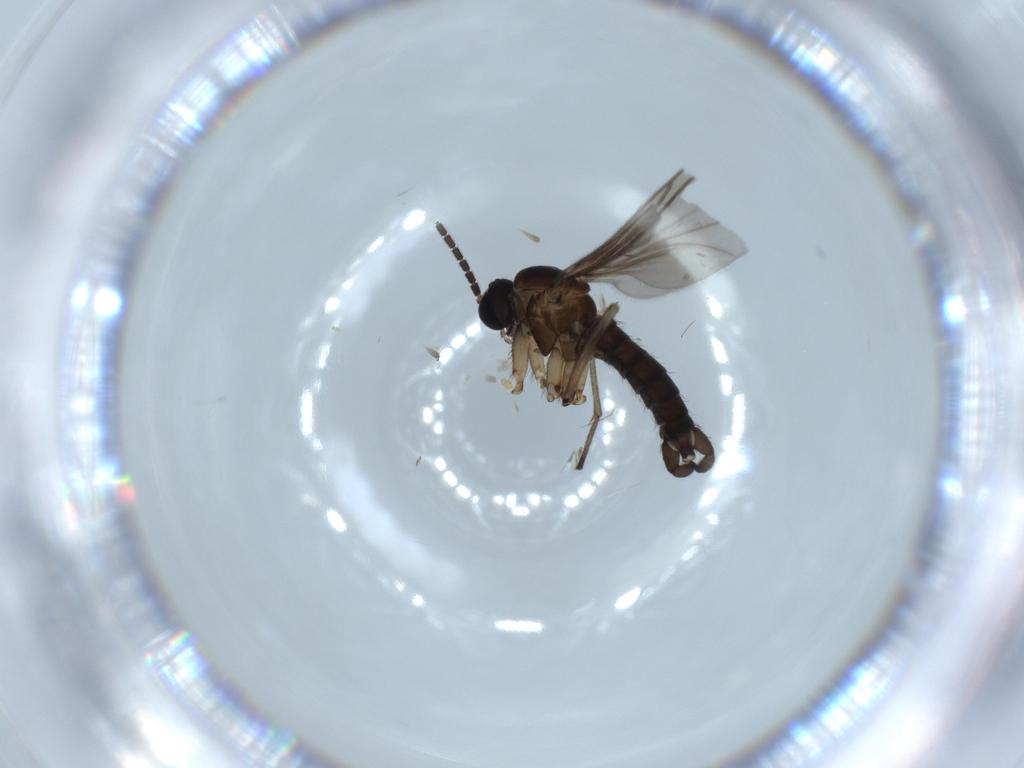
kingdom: Animalia
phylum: Arthropoda
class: Insecta
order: Diptera
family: Sciaridae
